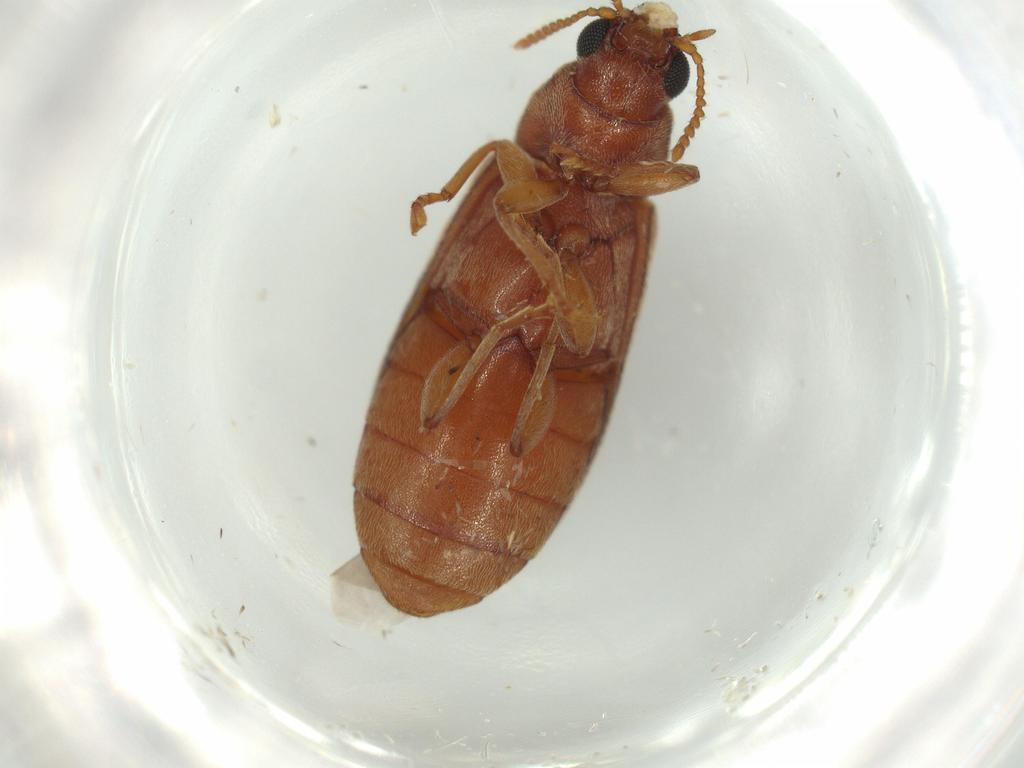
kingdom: Animalia
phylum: Arthropoda
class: Insecta
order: Coleoptera
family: Mycteridae
